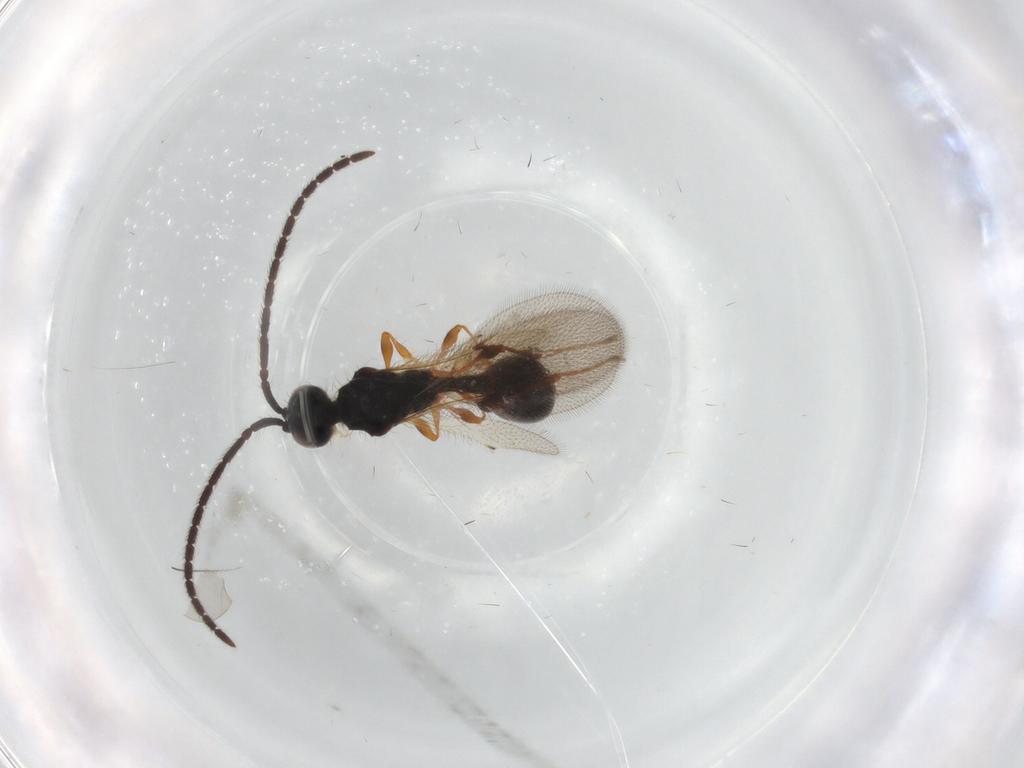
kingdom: Animalia
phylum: Arthropoda
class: Insecta
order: Hymenoptera
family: Diapriidae
